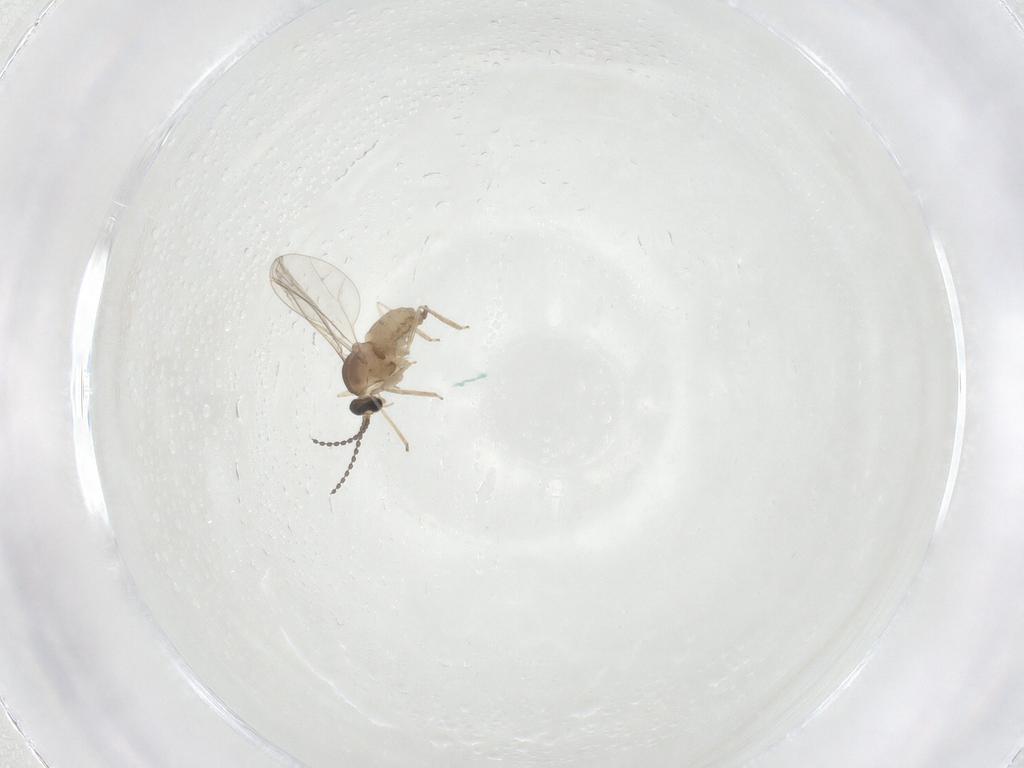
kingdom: Animalia
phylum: Arthropoda
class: Insecta
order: Diptera
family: Cecidomyiidae
